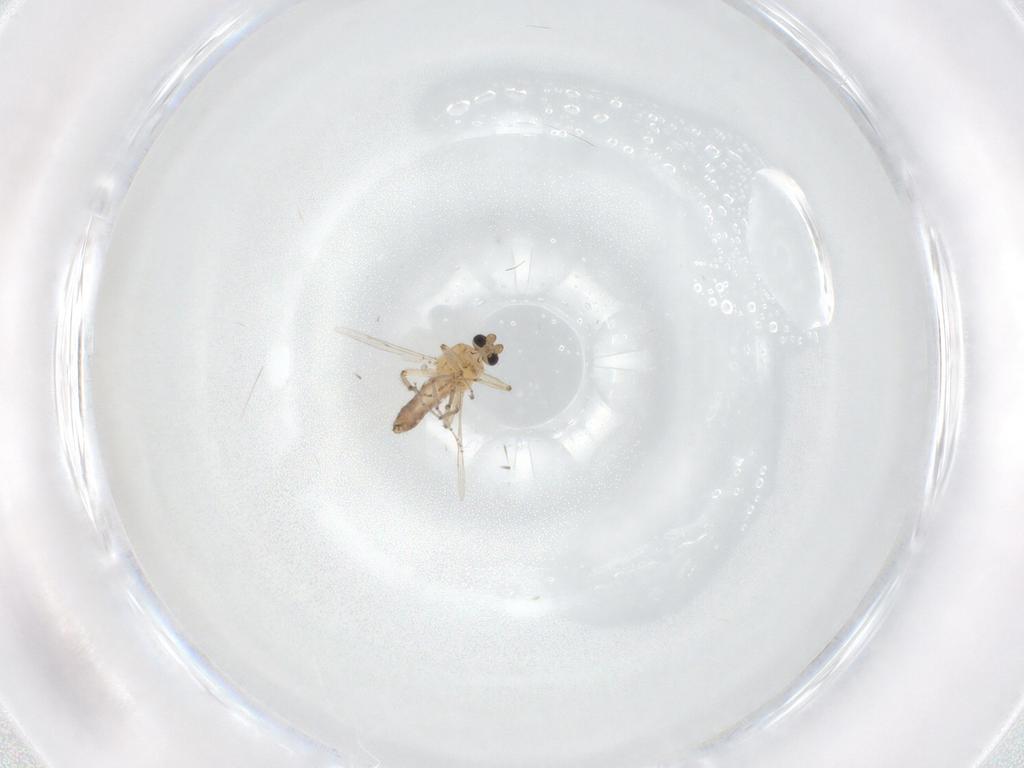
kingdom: Animalia
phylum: Arthropoda
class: Insecta
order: Diptera
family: Ceratopogonidae
